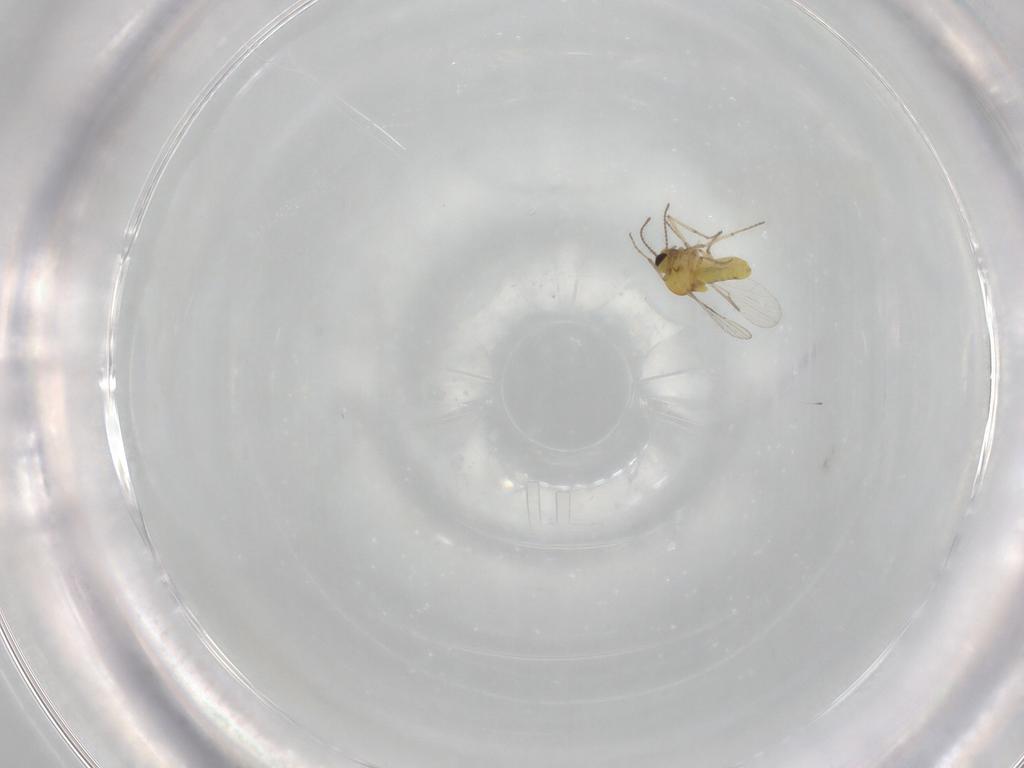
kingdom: Animalia
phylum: Arthropoda
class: Insecta
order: Diptera
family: Ceratopogonidae
